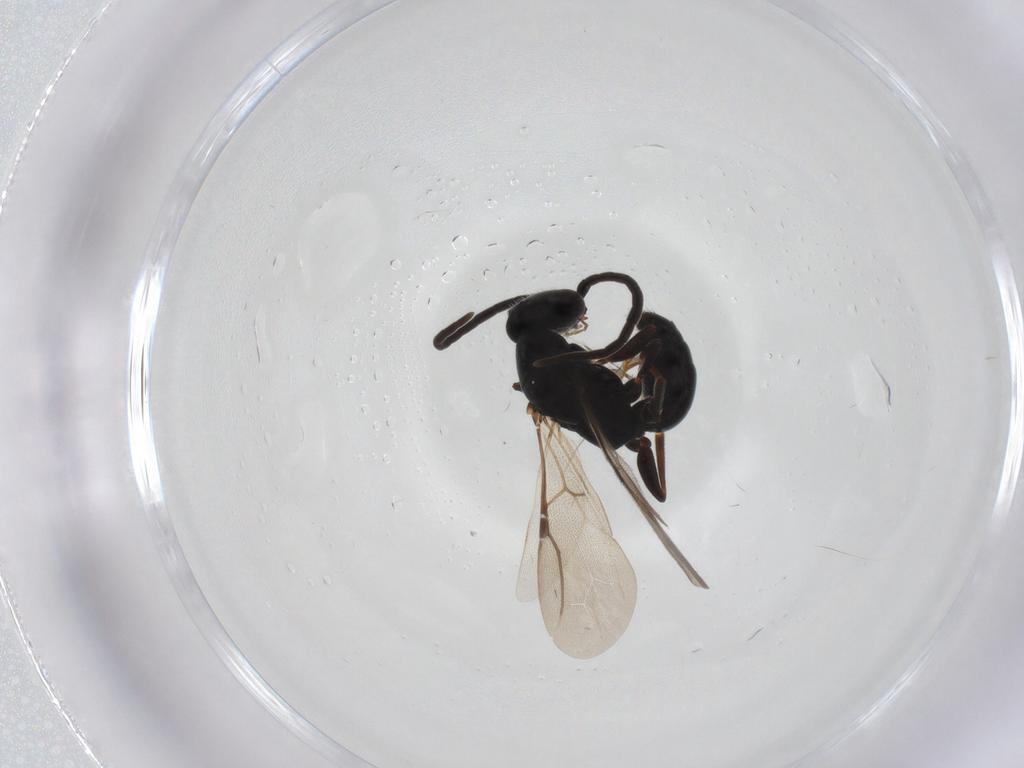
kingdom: Animalia
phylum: Arthropoda
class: Insecta
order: Hymenoptera
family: Bethylidae
